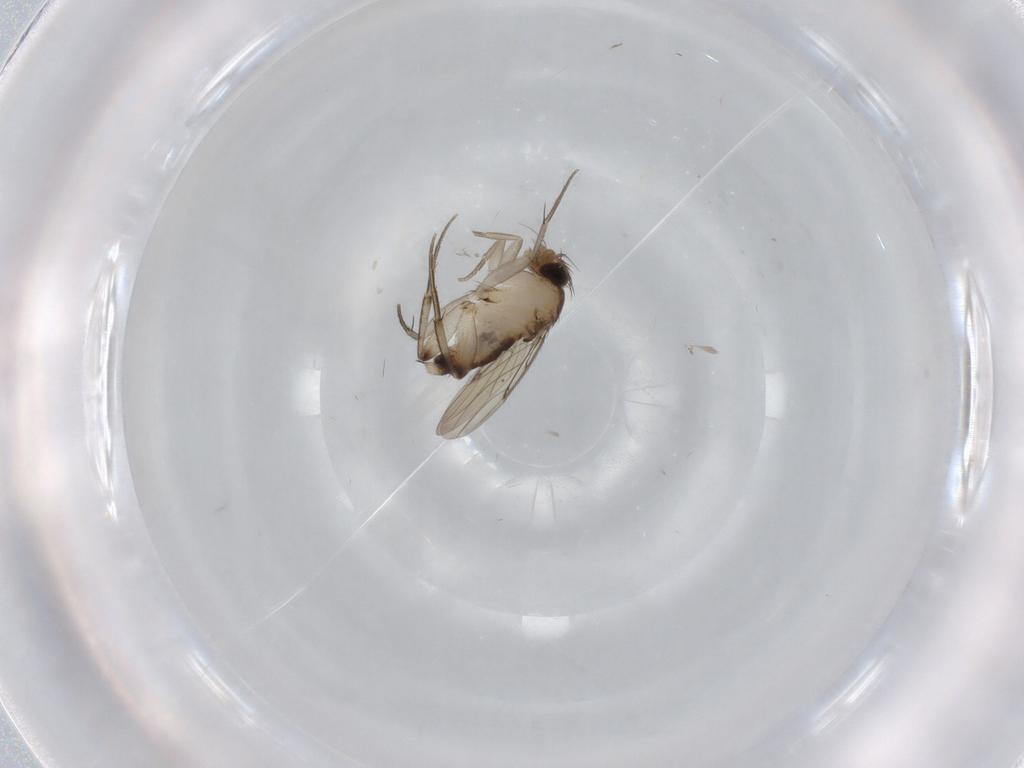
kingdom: Animalia
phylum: Arthropoda
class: Insecta
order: Diptera
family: Phoridae
